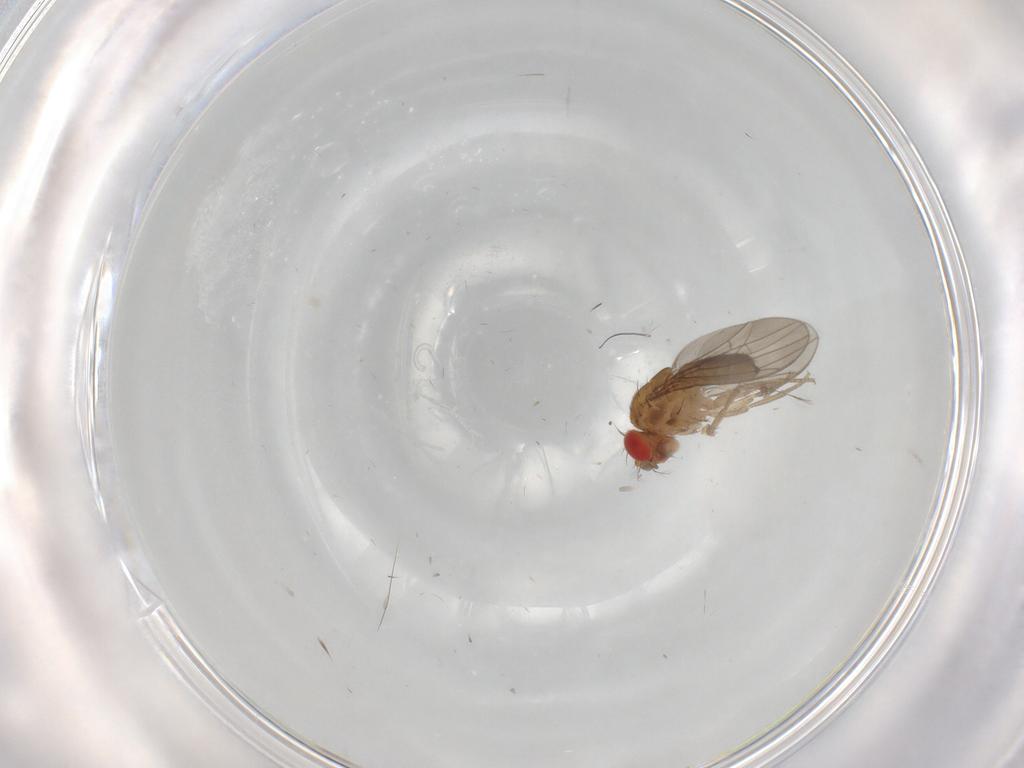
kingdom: Animalia
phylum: Arthropoda
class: Insecta
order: Diptera
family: Drosophilidae
